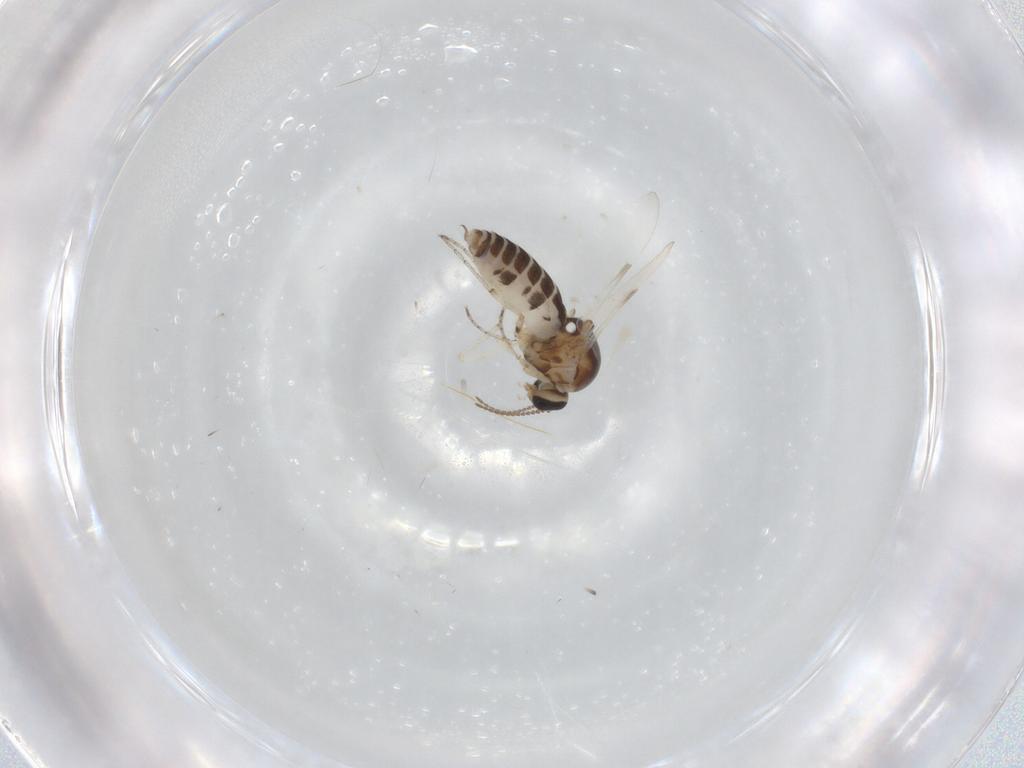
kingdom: Animalia
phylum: Arthropoda
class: Insecta
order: Diptera
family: Ceratopogonidae
